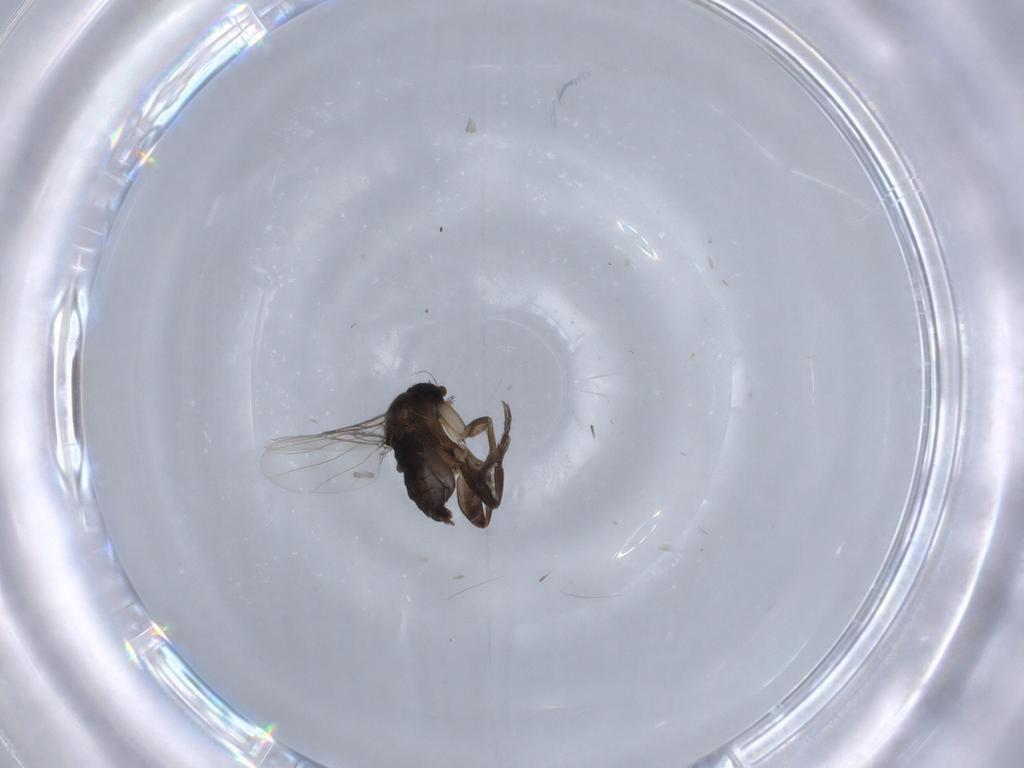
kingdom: Animalia
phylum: Arthropoda
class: Insecta
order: Diptera
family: Phoridae
